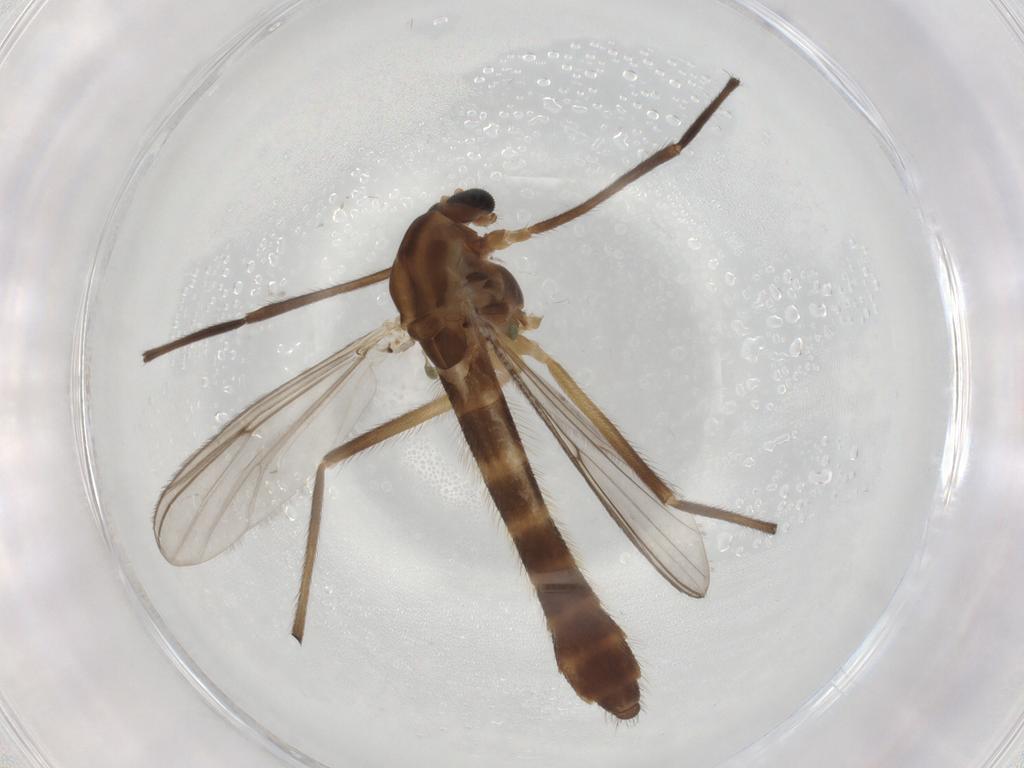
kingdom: Animalia
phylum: Arthropoda
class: Insecta
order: Diptera
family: Chironomidae
